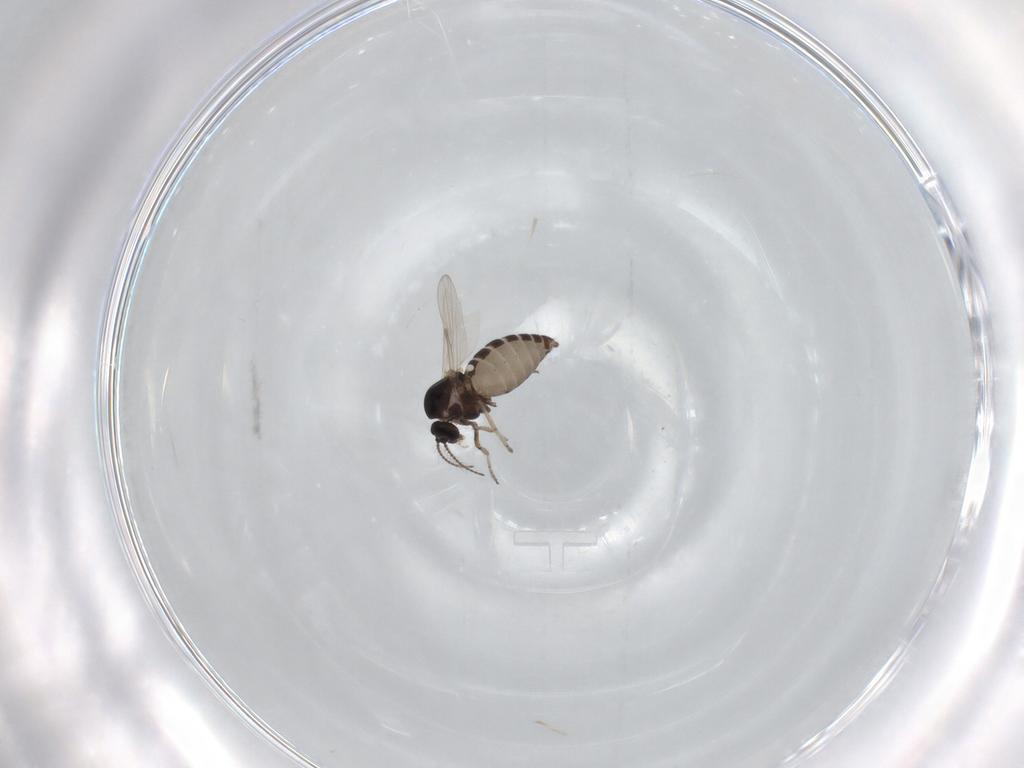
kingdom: Animalia
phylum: Arthropoda
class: Insecta
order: Diptera
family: Ceratopogonidae
